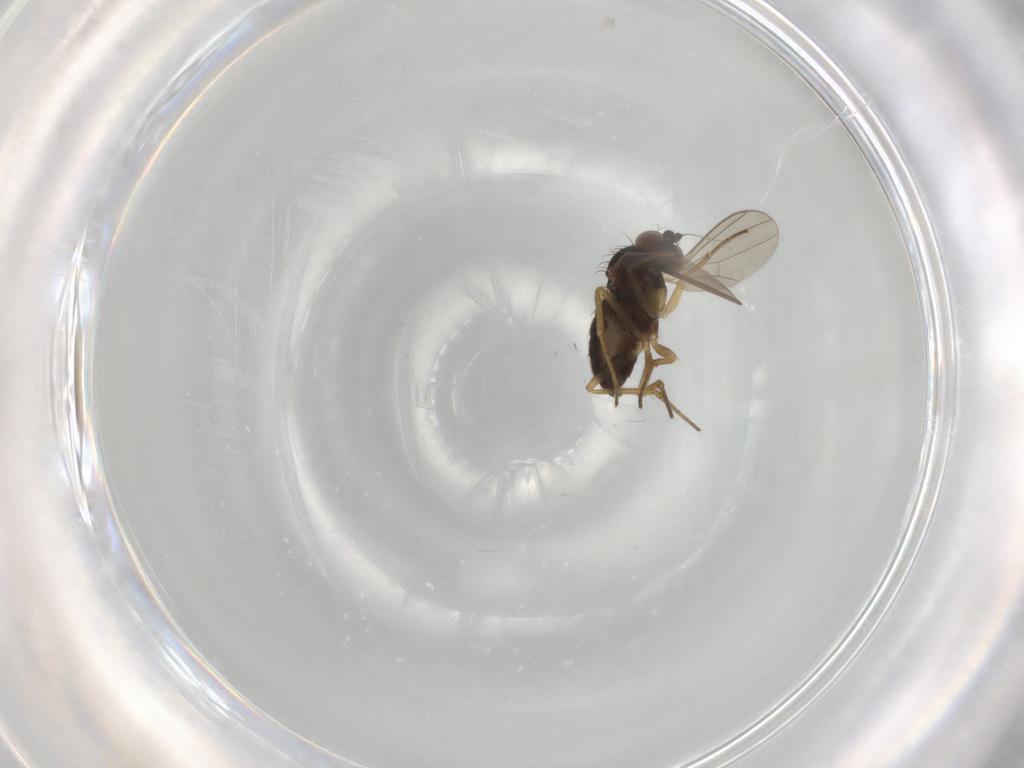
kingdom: Animalia
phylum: Arthropoda
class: Insecta
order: Diptera
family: Dolichopodidae
